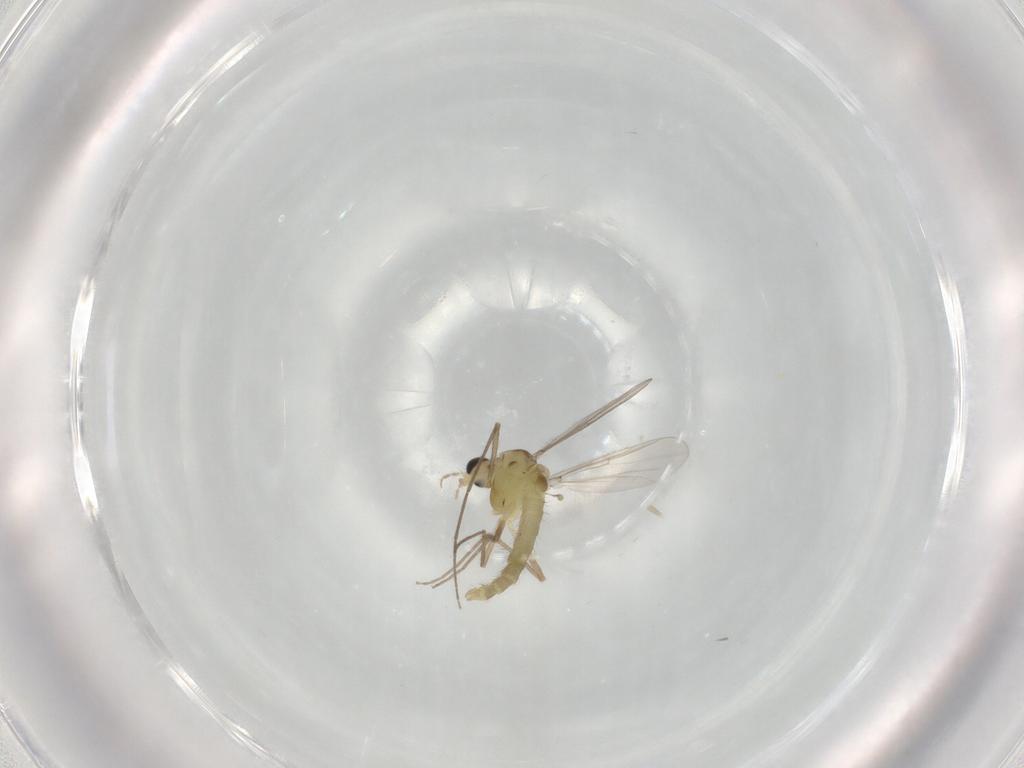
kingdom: Animalia
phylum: Arthropoda
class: Insecta
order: Diptera
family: Chironomidae
